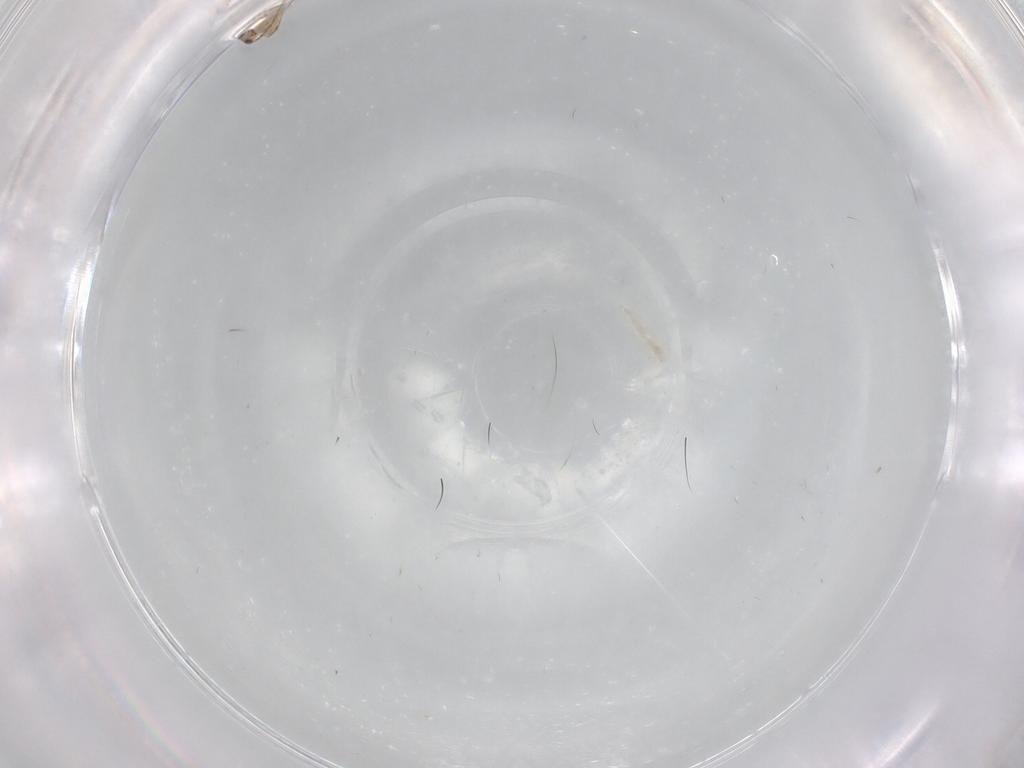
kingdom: Animalia
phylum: Arthropoda
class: Insecta
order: Hymenoptera
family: Mymaridae
